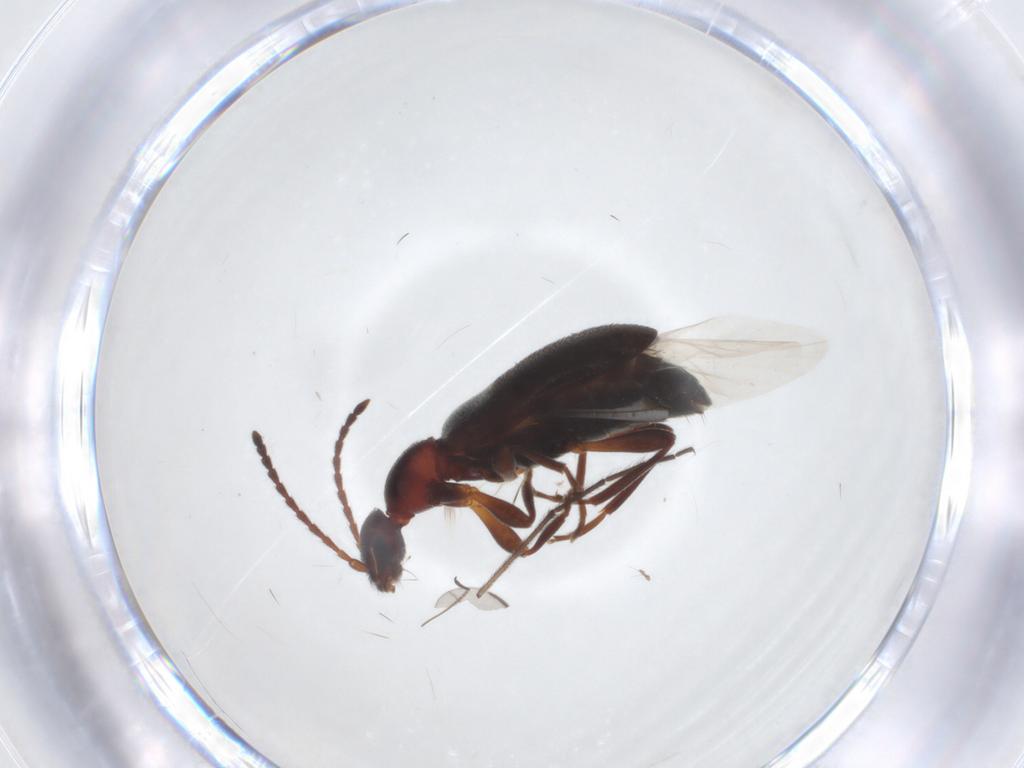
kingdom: Animalia
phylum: Arthropoda
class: Insecta
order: Coleoptera
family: Anthicidae
